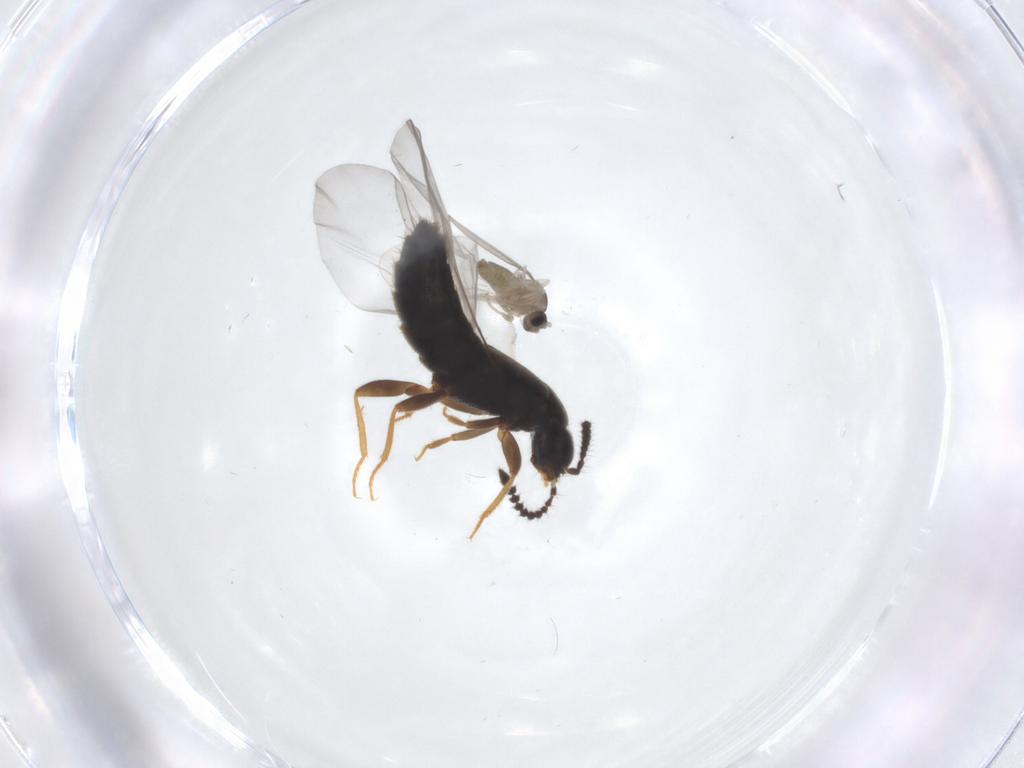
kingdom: Animalia
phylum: Arthropoda
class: Insecta
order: Diptera
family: Cecidomyiidae
